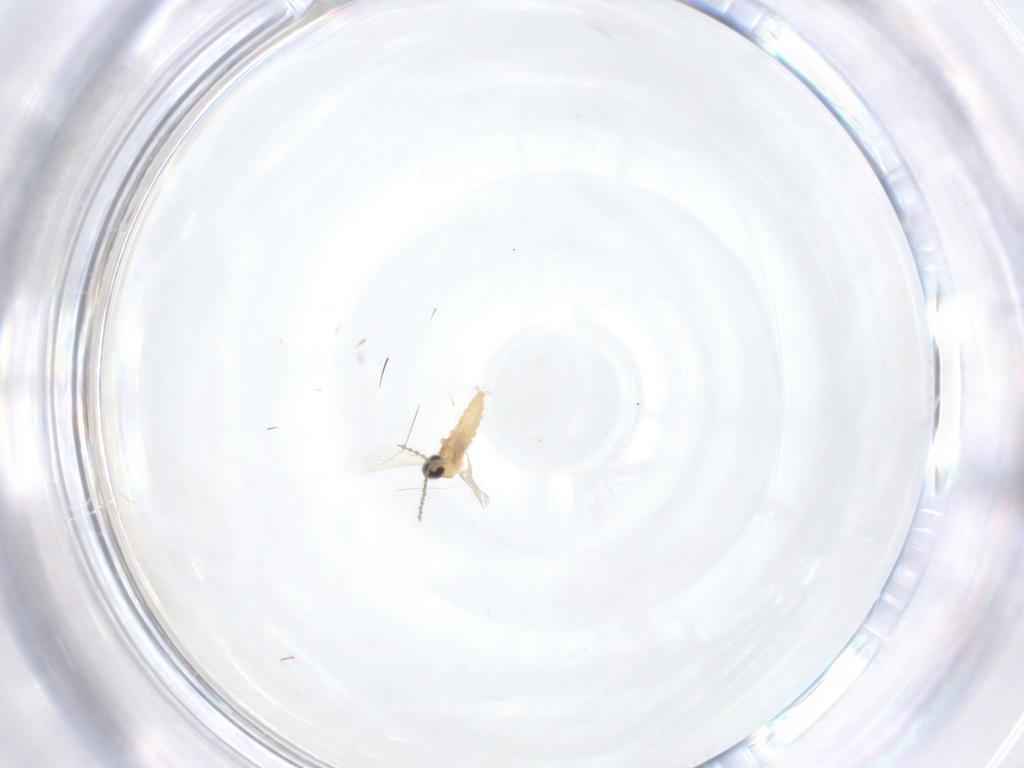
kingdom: Animalia
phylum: Arthropoda
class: Insecta
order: Diptera
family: Cecidomyiidae
